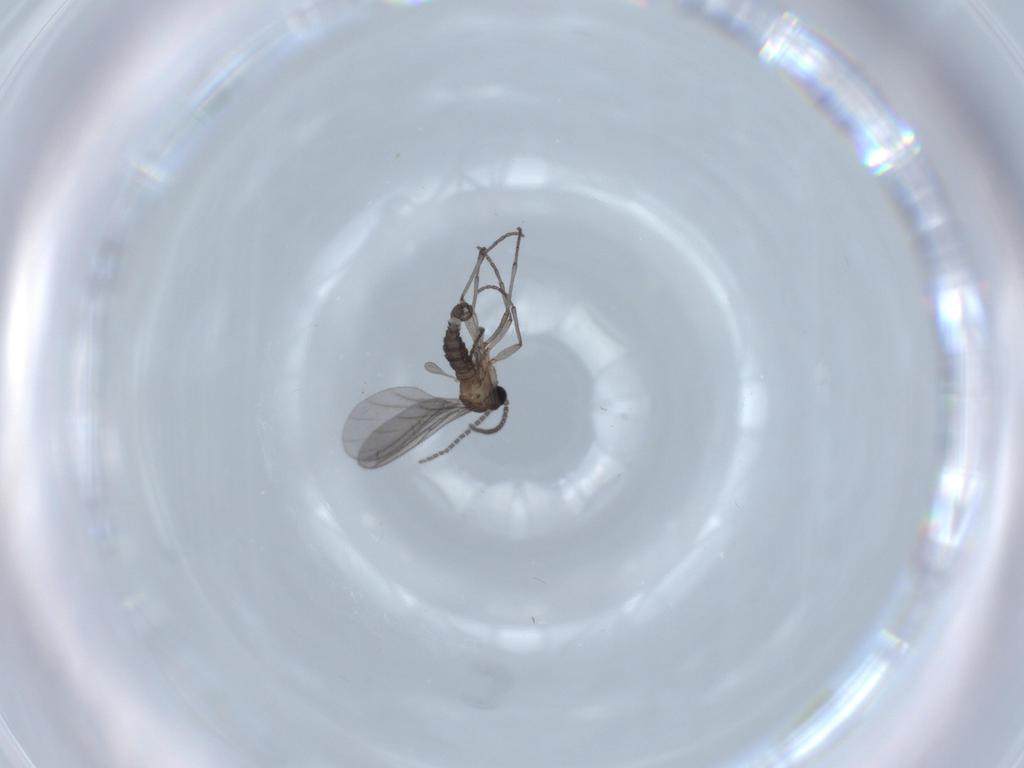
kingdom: Animalia
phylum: Arthropoda
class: Insecta
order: Diptera
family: Sciaridae
